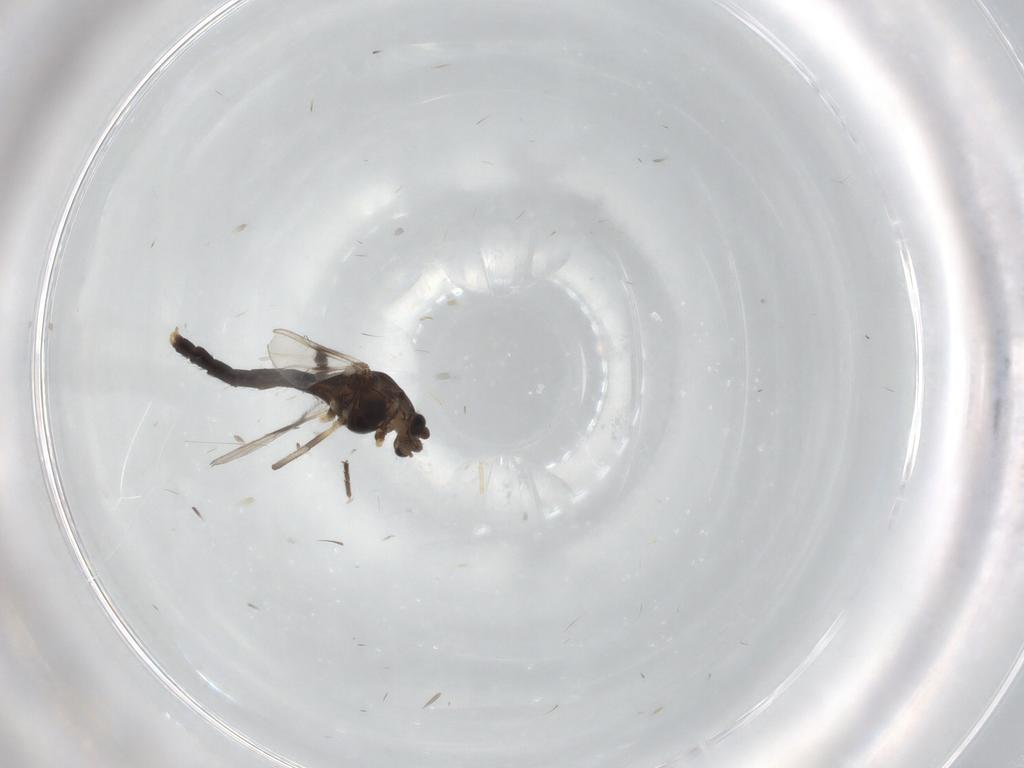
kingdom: Animalia
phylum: Arthropoda
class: Insecta
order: Diptera
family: Chironomidae
